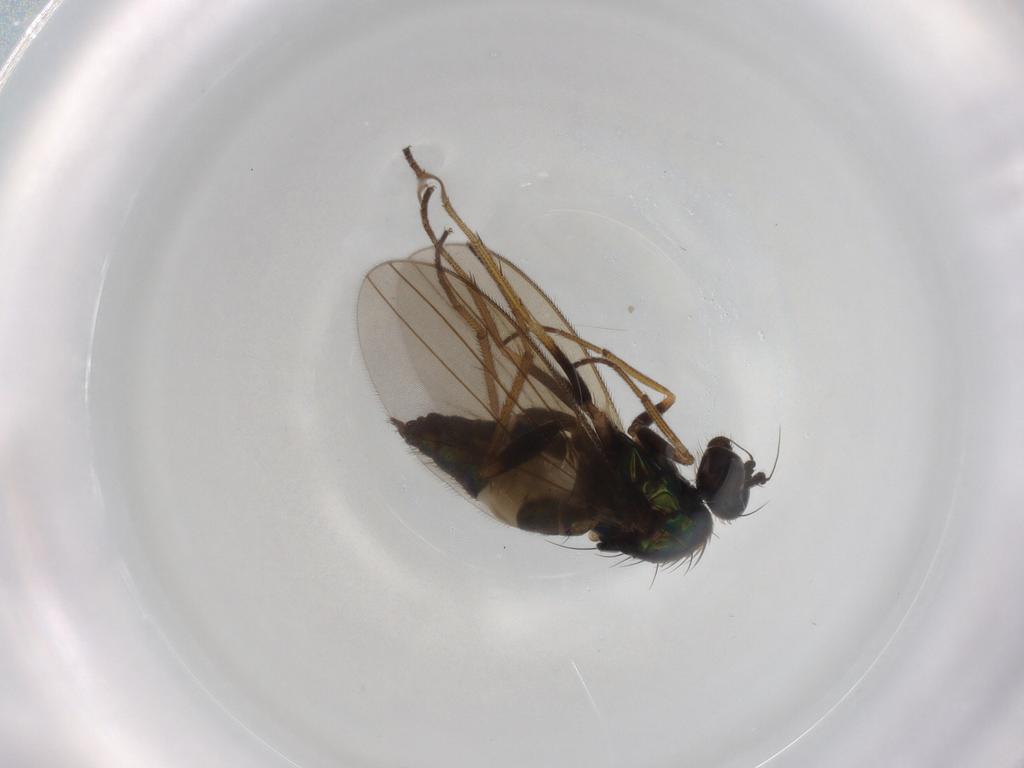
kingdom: Animalia
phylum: Arthropoda
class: Insecta
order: Diptera
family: Dolichopodidae
